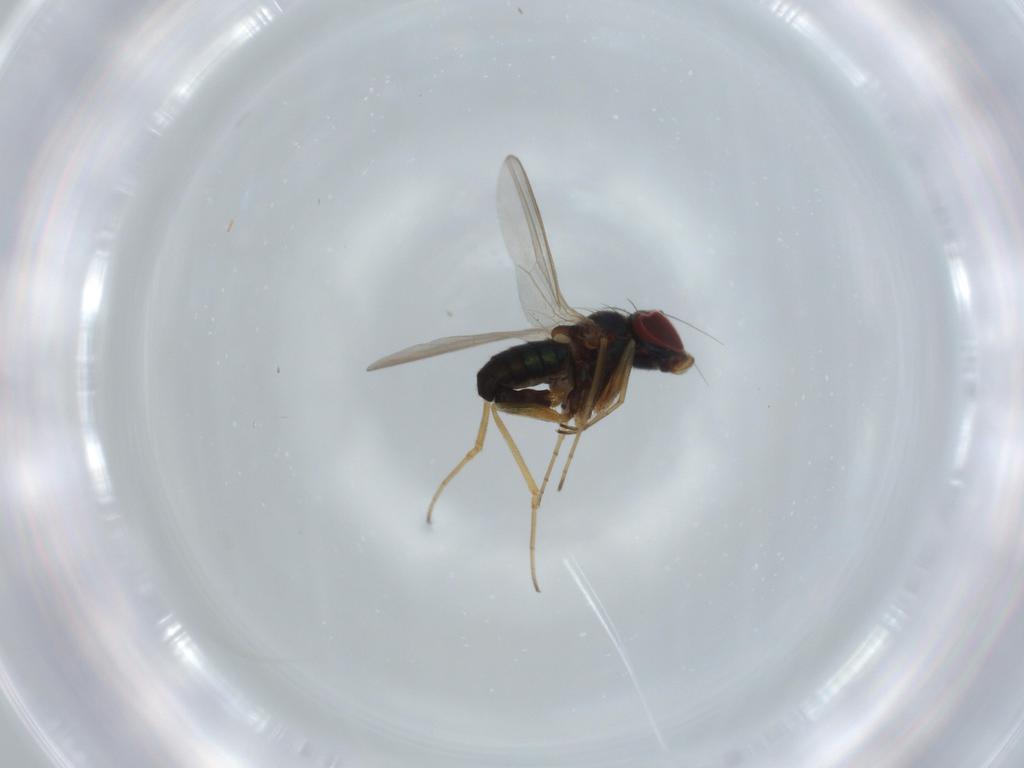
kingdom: Animalia
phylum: Arthropoda
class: Insecta
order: Diptera
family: Dolichopodidae
